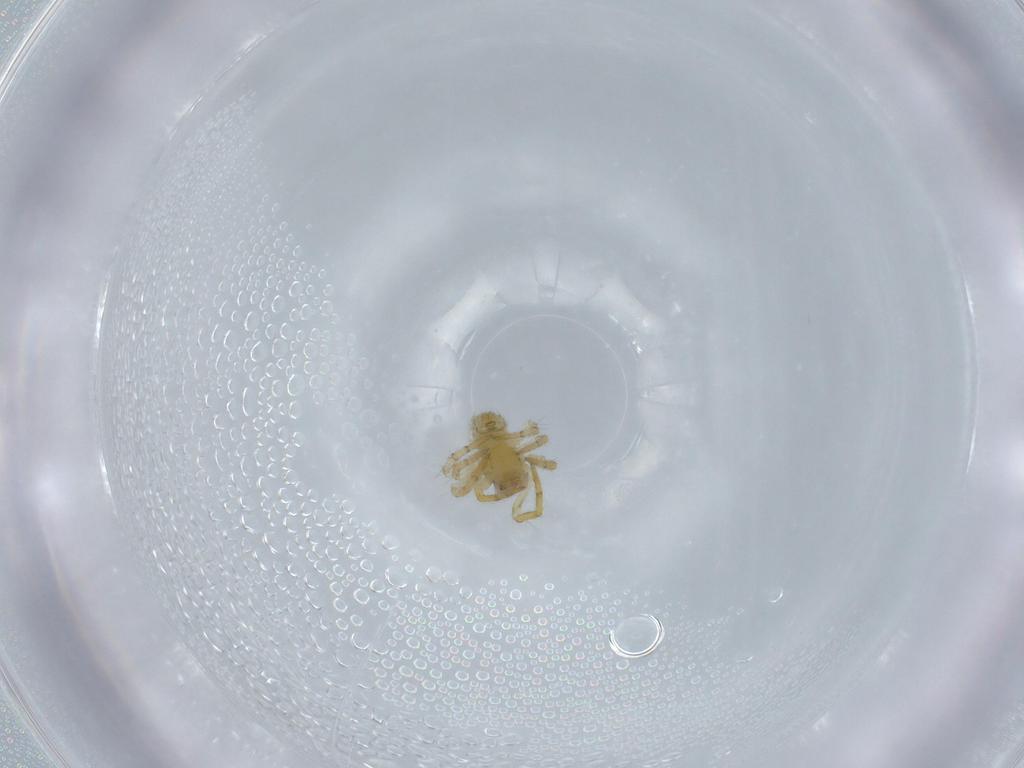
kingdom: Animalia
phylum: Arthropoda
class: Arachnida
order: Araneae
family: Theridiidae
